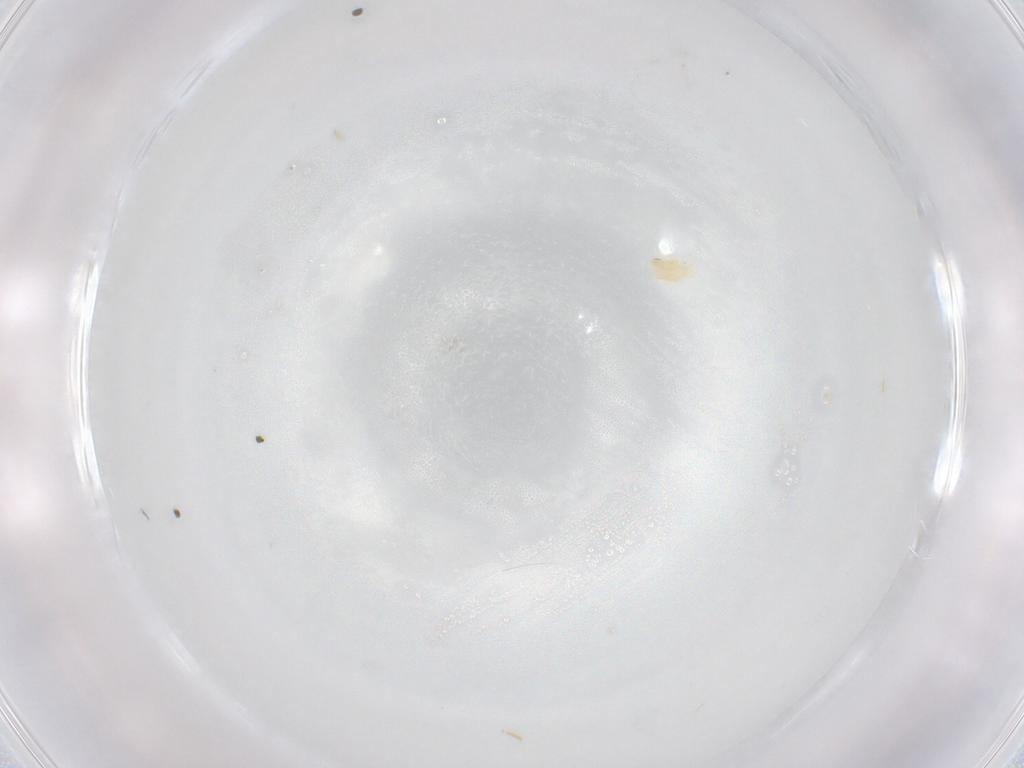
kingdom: Animalia
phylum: Arthropoda
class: Arachnida
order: Trombidiformes
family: Eupodidae
